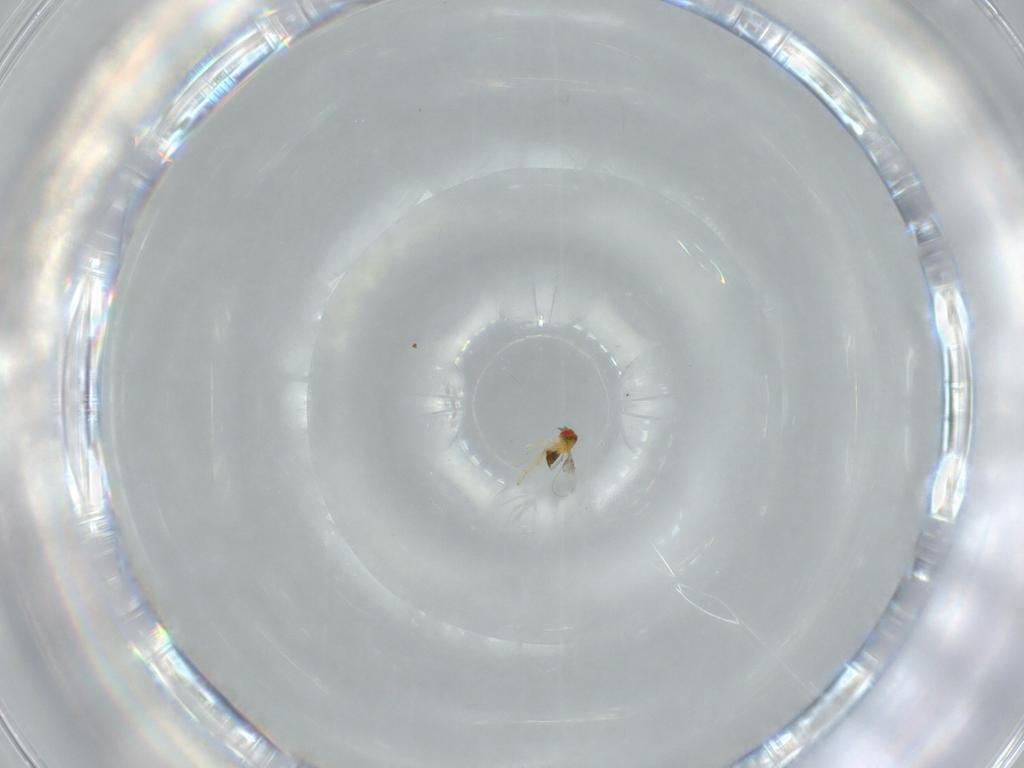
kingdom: Animalia
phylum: Arthropoda
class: Insecta
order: Hymenoptera
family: Trichogrammatidae
